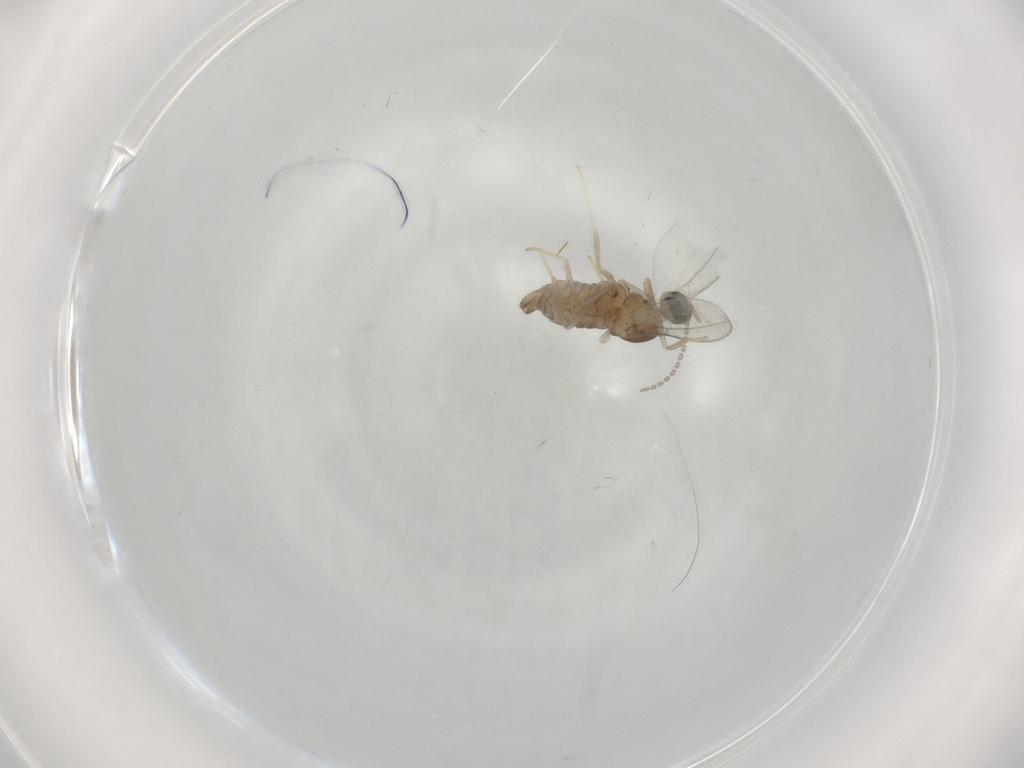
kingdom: Animalia
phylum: Arthropoda
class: Insecta
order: Diptera
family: Cecidomyiidae
